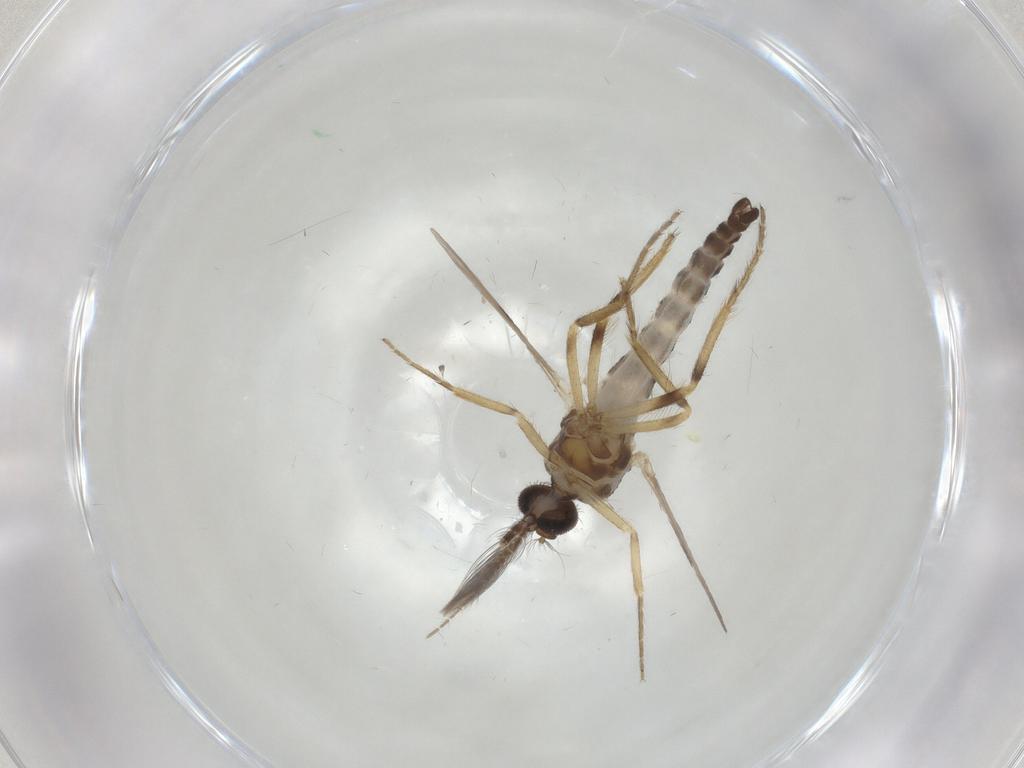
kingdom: Animalia
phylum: Arthropoda
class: Insecta
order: Diptera
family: Ceratopogonidae
